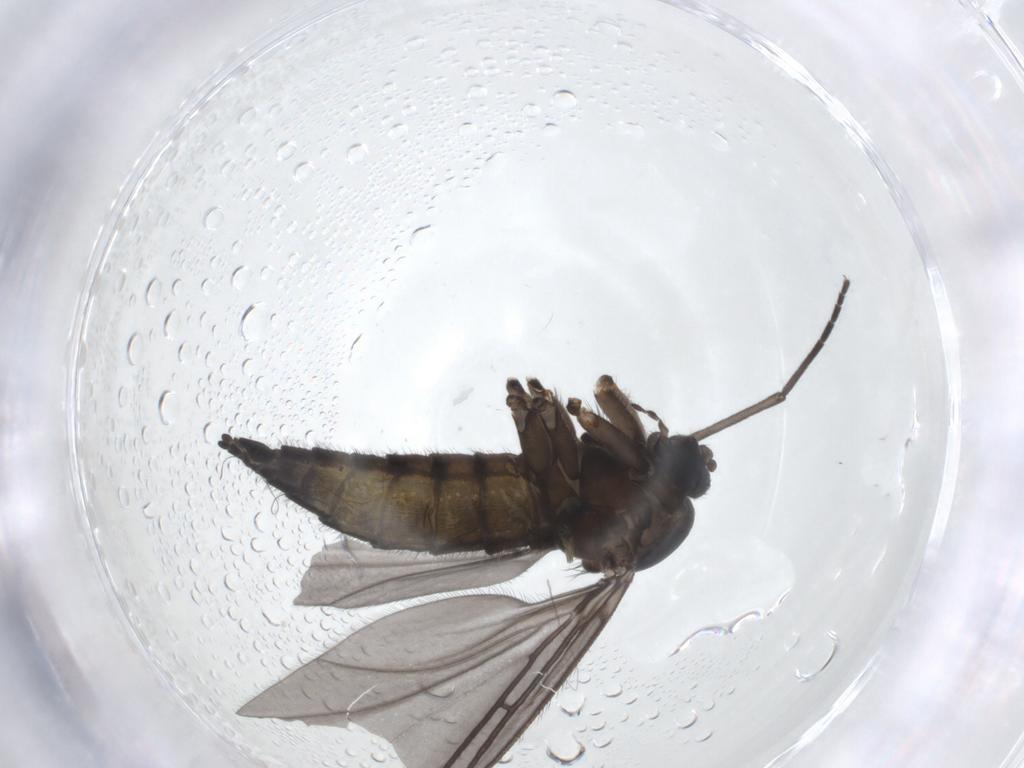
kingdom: Animalia
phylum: Arthropoda
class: Insecta
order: Diptera
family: Sciaridae
